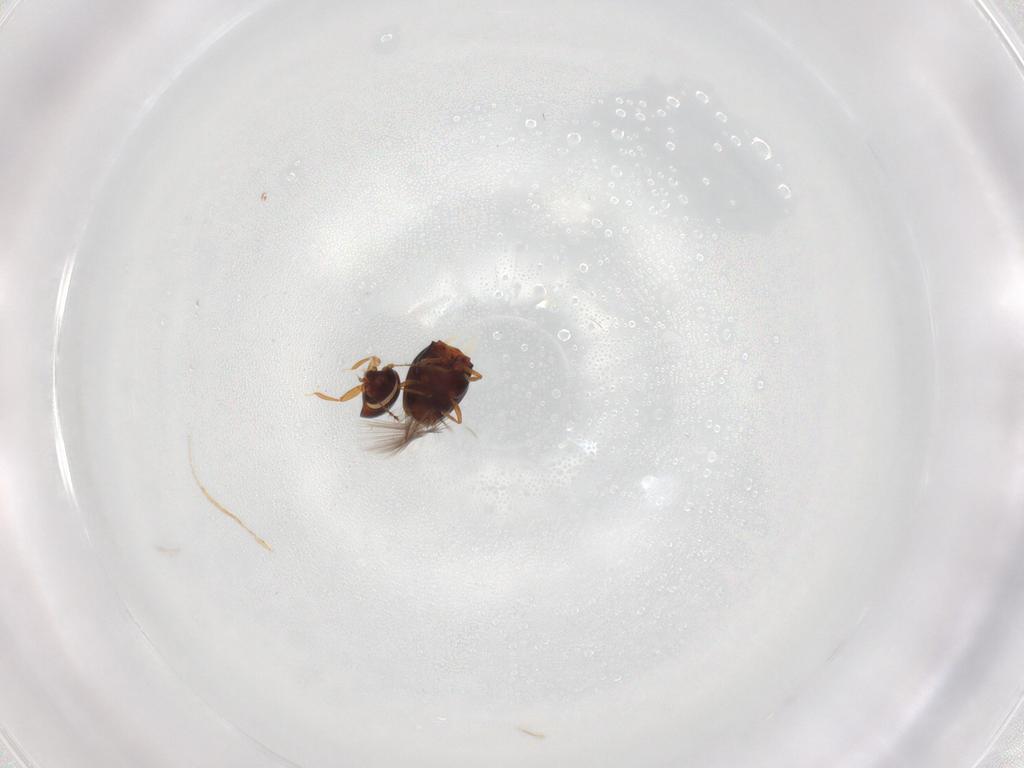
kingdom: Animalia
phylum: Arthropoda
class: Insecta
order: Coleoptera
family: Ptiliidae
